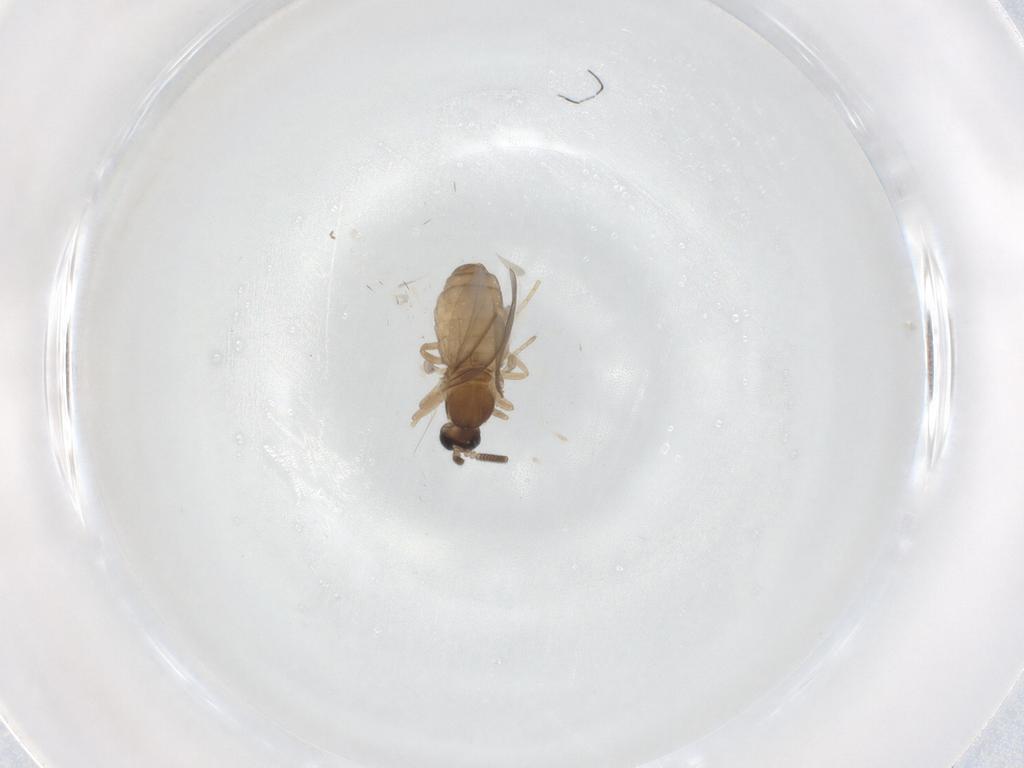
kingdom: Animalia
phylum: Arthropoda
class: Insecta
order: Diptera
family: Cecidomyiidae
